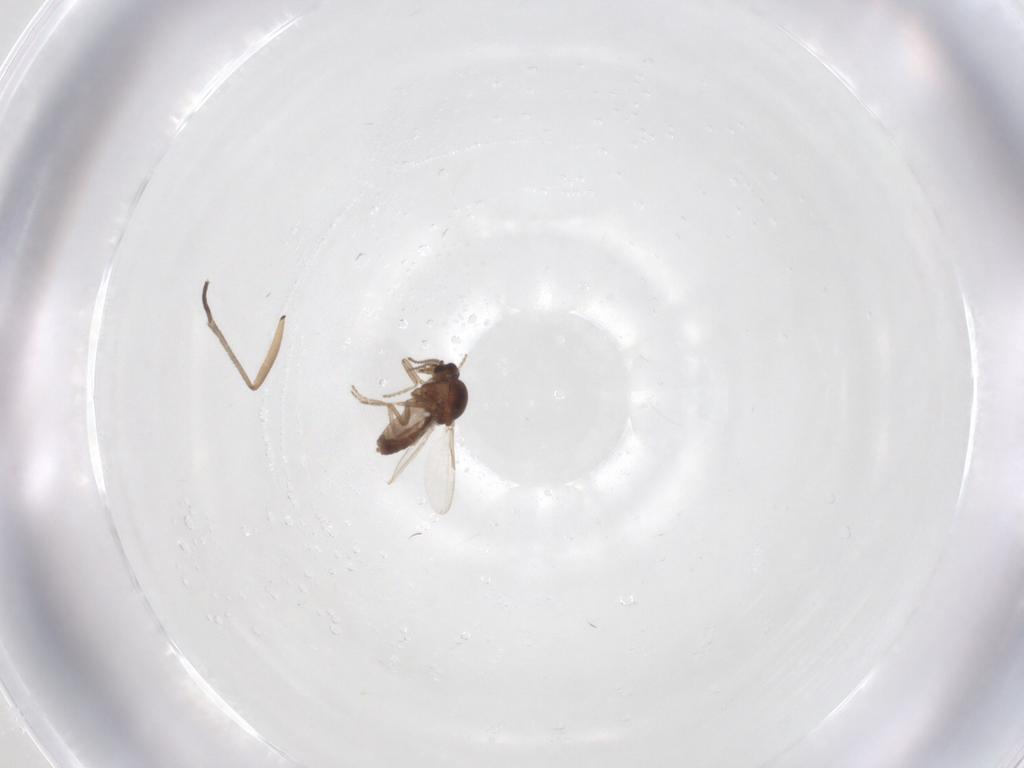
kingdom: Animalia
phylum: Arthropoda
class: Insecta
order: Diptera
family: Ceratopogonidae
